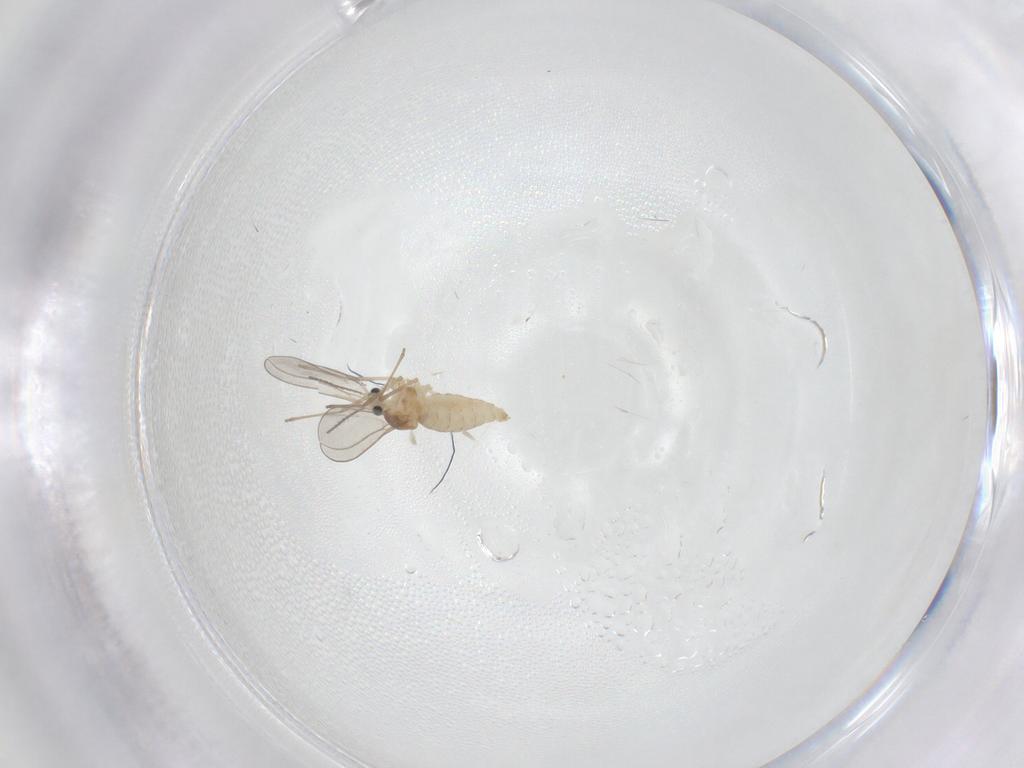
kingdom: Animalia
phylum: Arthropoda
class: Insecta
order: Diptera
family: Cecidomyiidae
